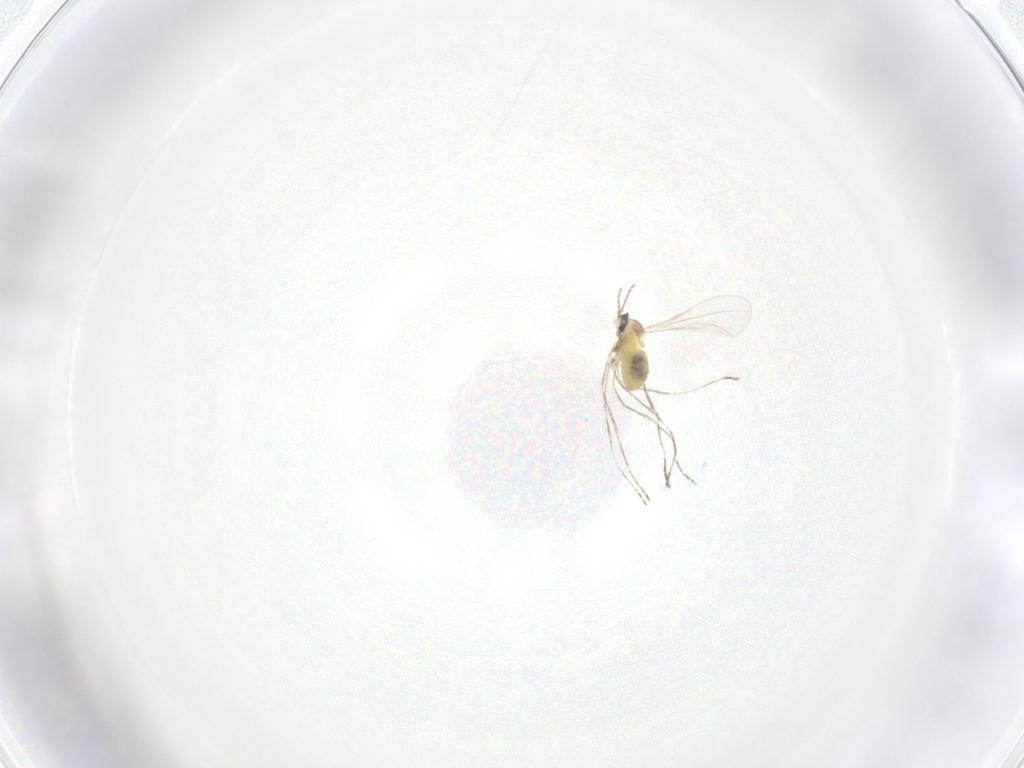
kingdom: Animalia
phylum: Arthropoda
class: Insecta
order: Diptera
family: Cecidomyiidae
